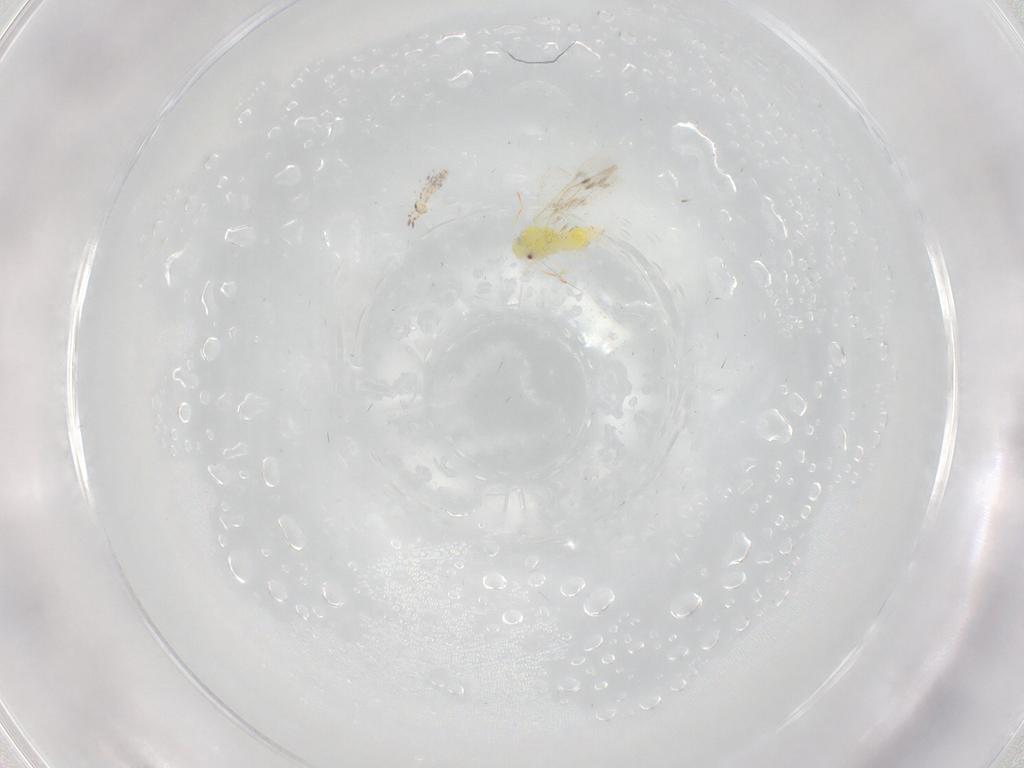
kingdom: Animalia
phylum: Arthropoda
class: Insecta
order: Hemiptera
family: Aleyrodidae
